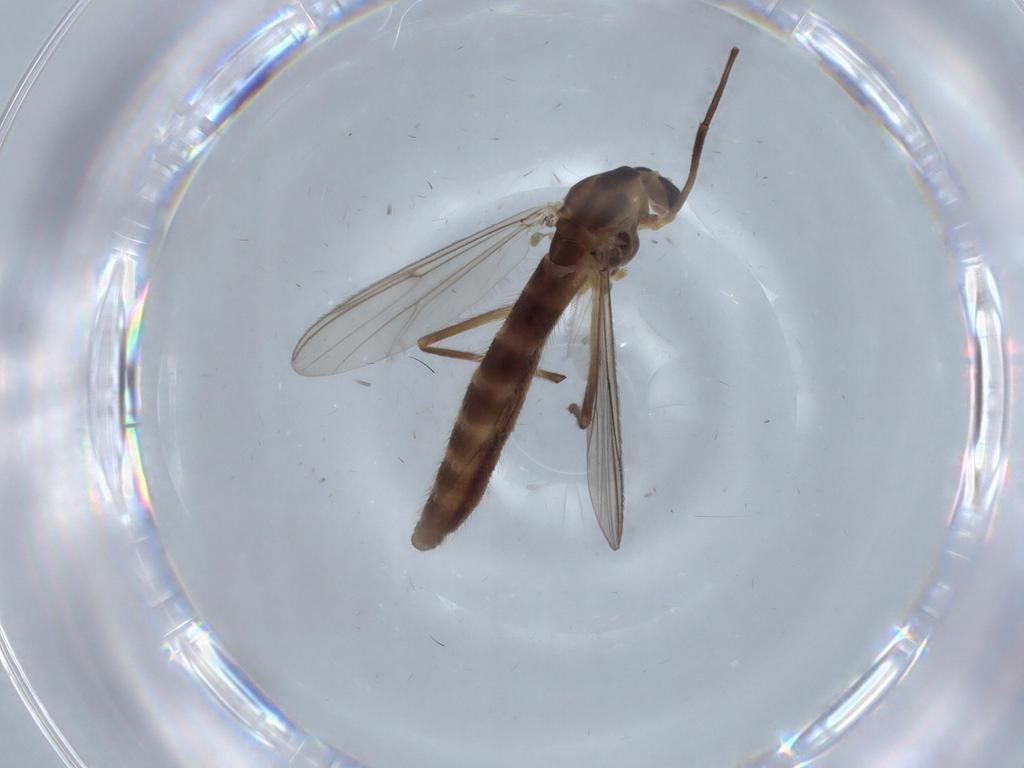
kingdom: Animalia
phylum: Arthropoda
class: Insecta
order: Diptera
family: Chironomidae
